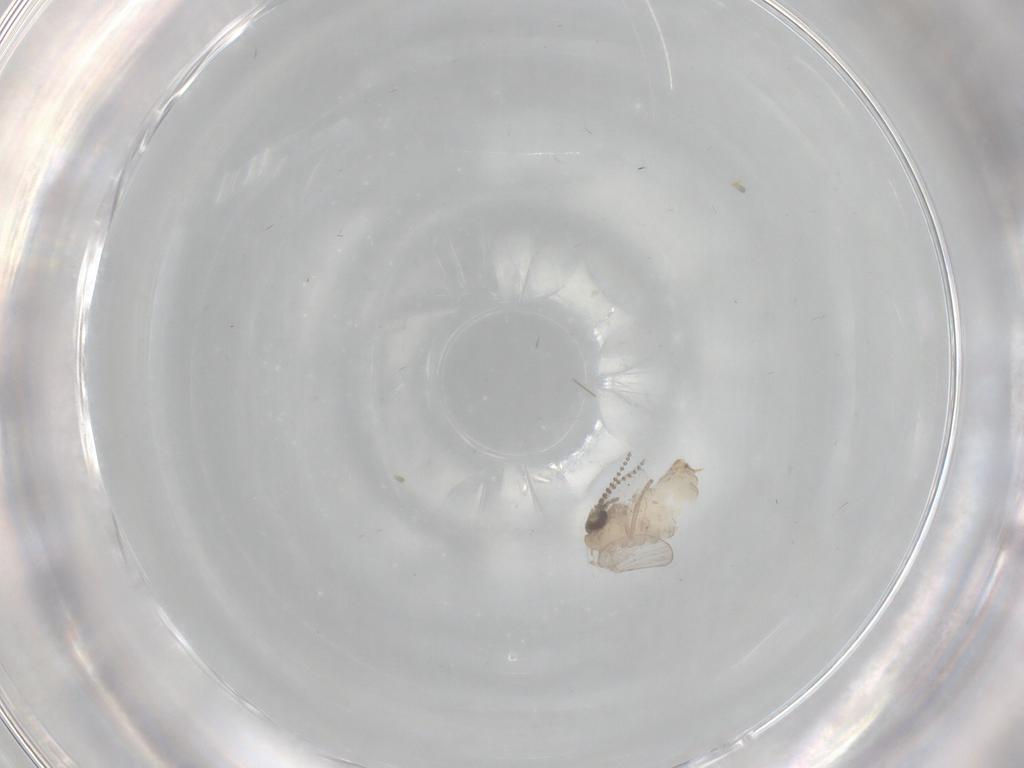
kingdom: Animalia
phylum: Arthropoda
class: Insecta
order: Diptera
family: Psychodidae
